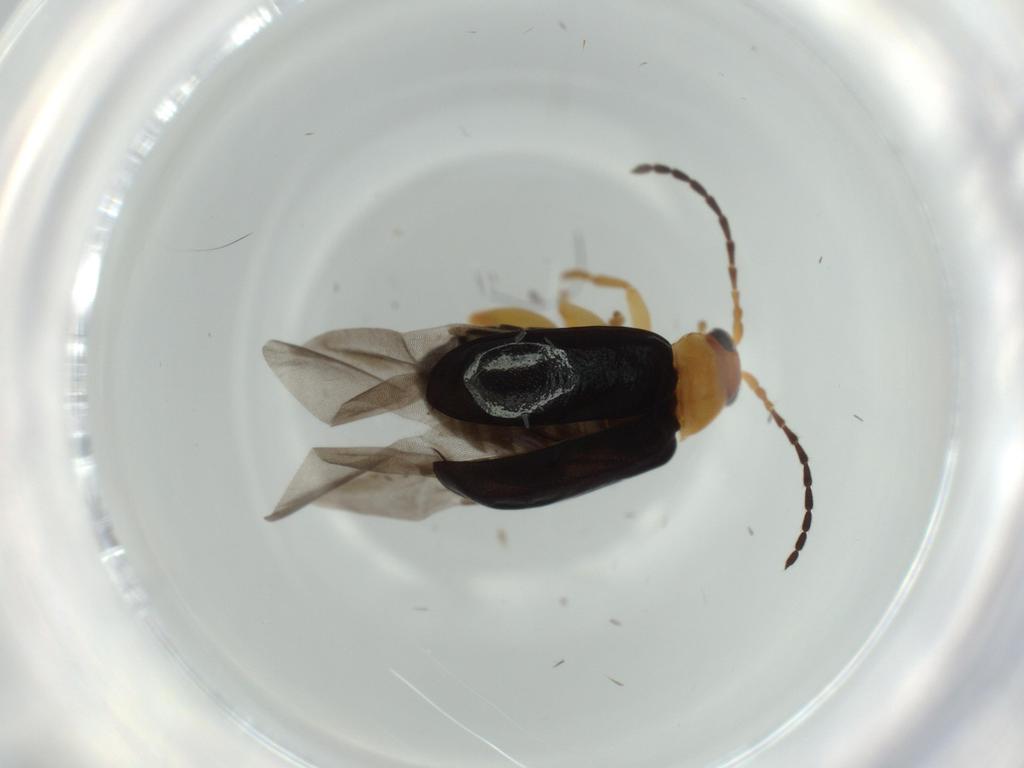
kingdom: Animalia
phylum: Arthropoda
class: Insecta
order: Coleoptera
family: Chrysomelidae
